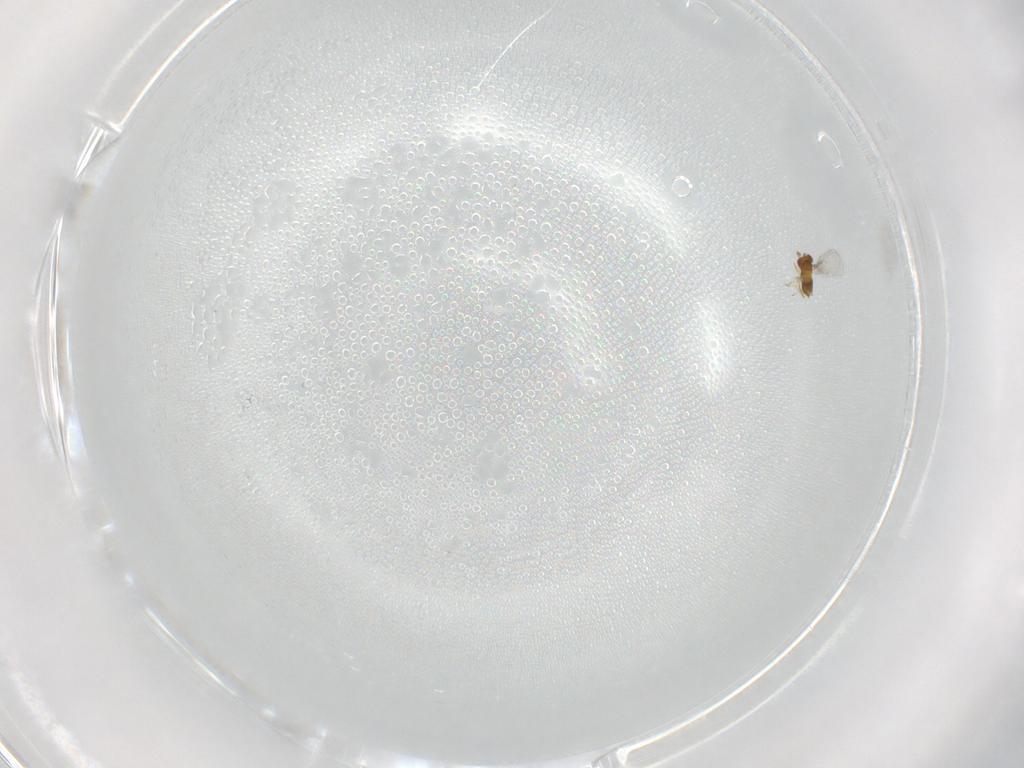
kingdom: Animalia
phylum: Arthropoda
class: Insecta
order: Hymenoptera
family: Trichogrammatidae
